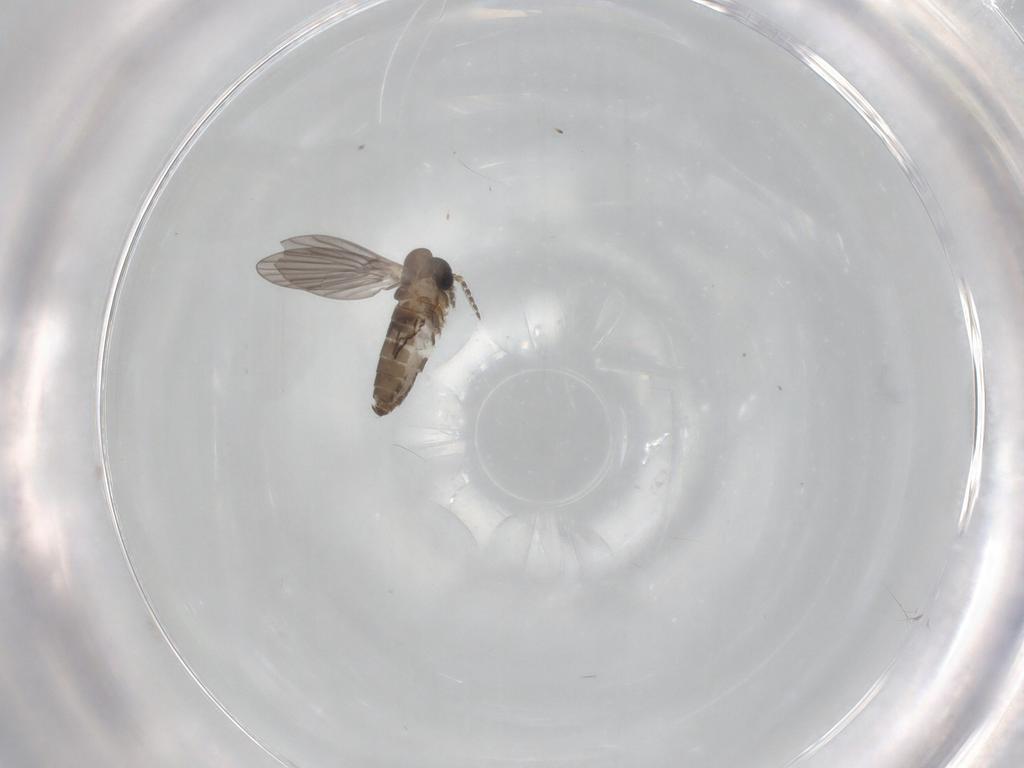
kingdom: Animalia
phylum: Arthropoda
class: Insecta
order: Diptera
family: Psychodidae
